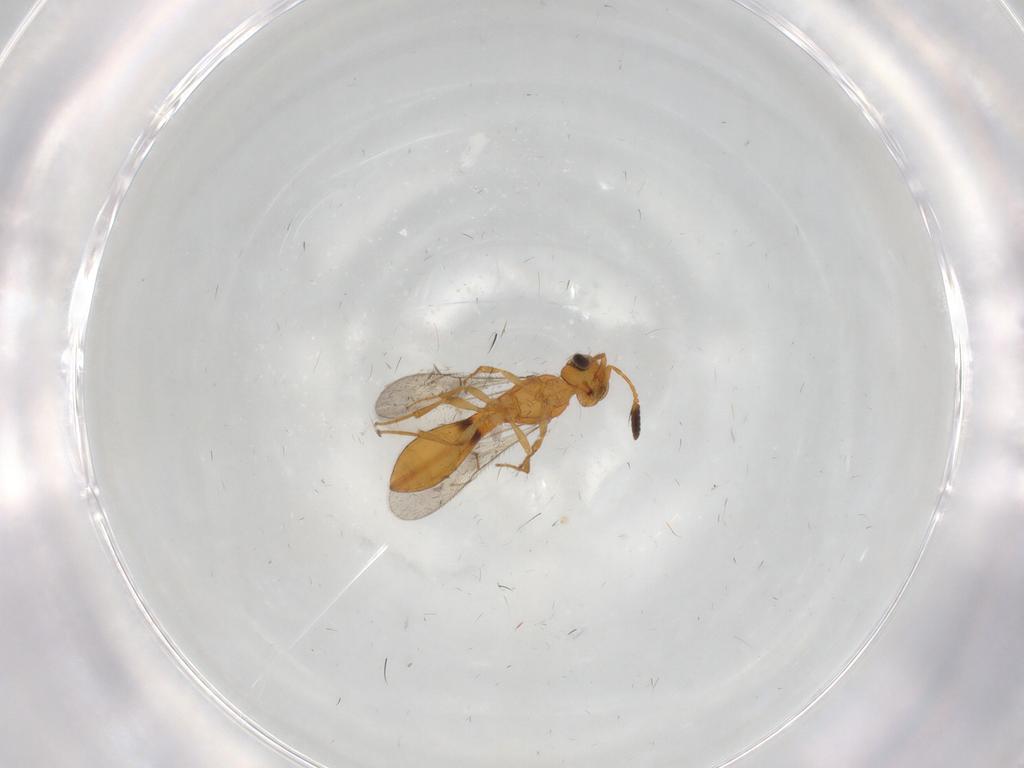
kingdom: Animalia
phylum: Arthropoda
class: Insecta
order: Hymenoptera
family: Scelionidae
